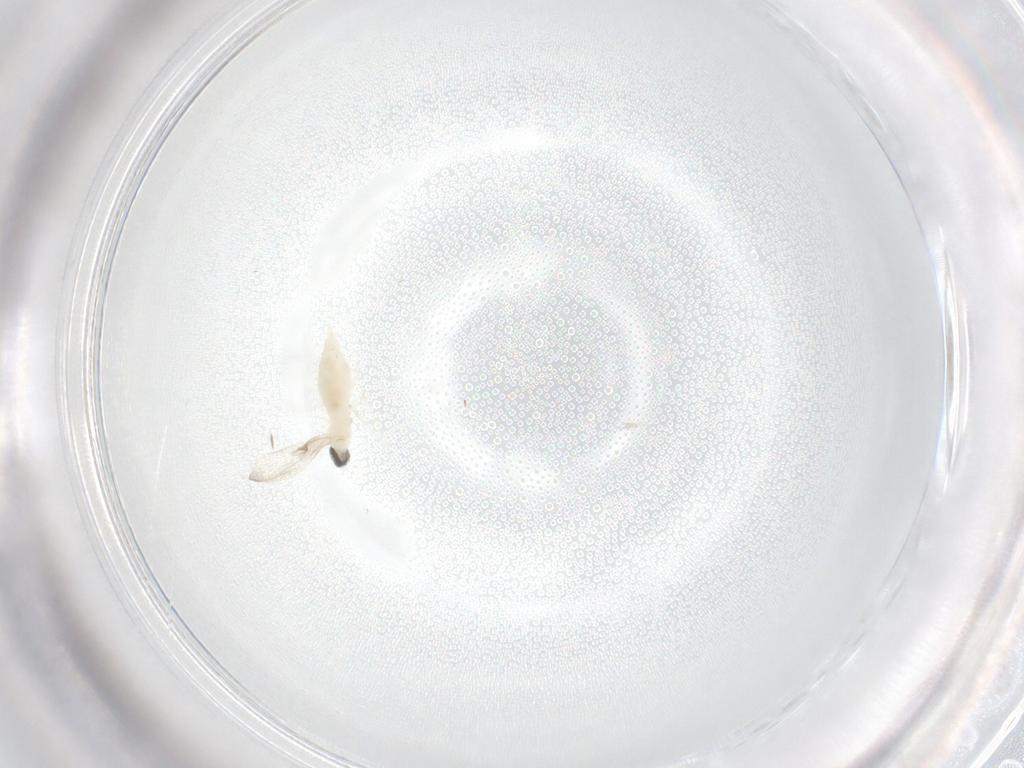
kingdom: Animalia
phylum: Arthropoda
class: Insecta
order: Diptera
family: Cecidomyiidae
